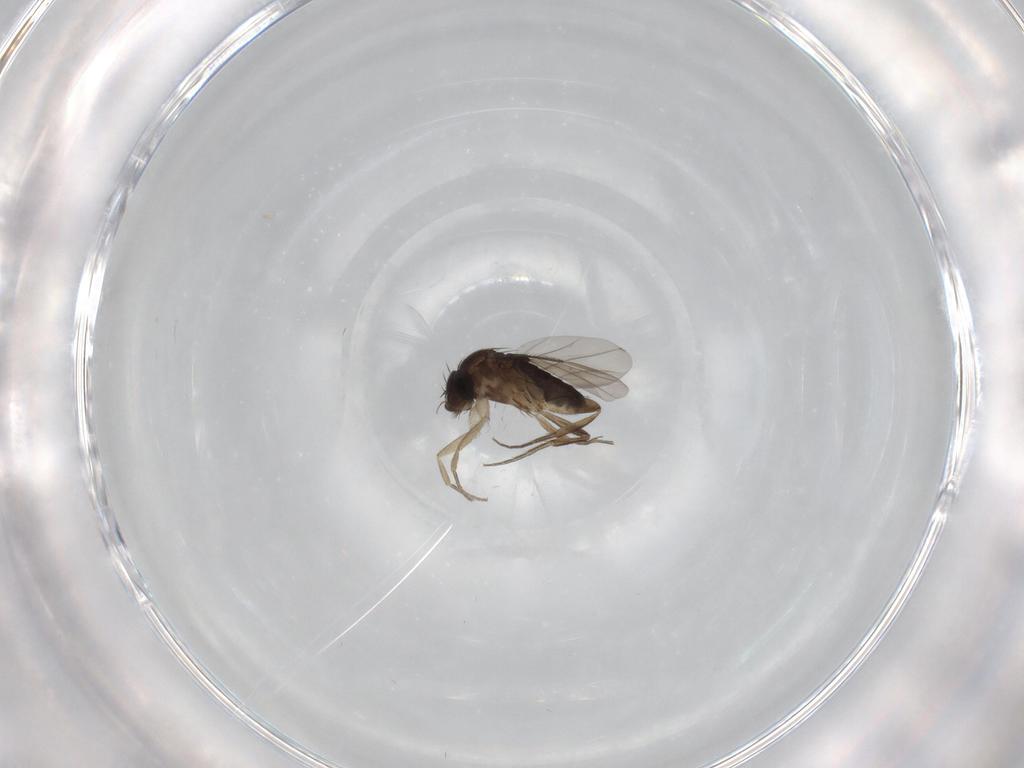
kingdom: Animalia
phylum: Arthropoda
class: Insecta
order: Diptera
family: Phoridae
